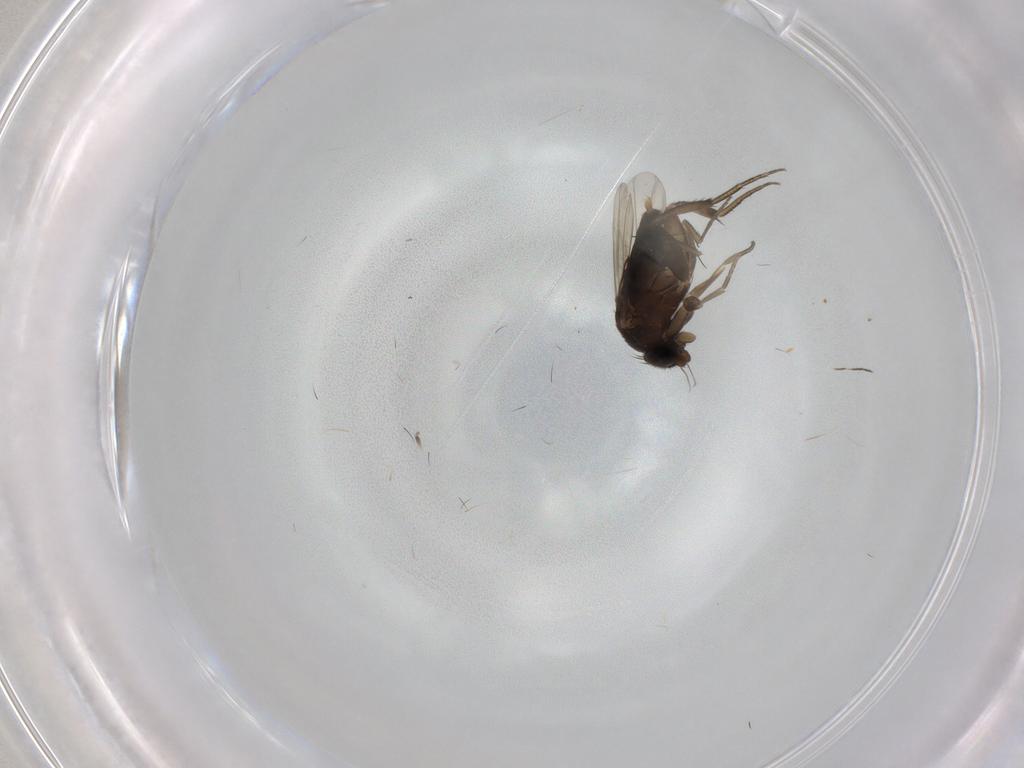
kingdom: Animalia
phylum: Arthropoda
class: Insecta
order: Diptera
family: Phoridae
